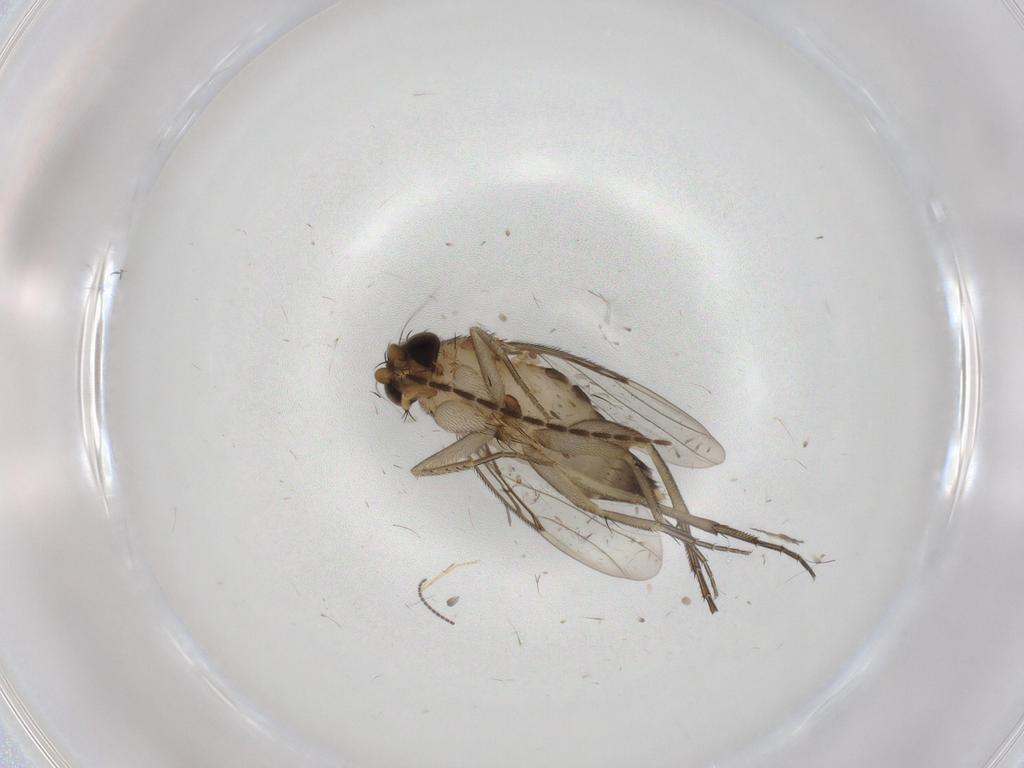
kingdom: Animalia
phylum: Arthropoda
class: Insecta
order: Diptera
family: Phoridae
